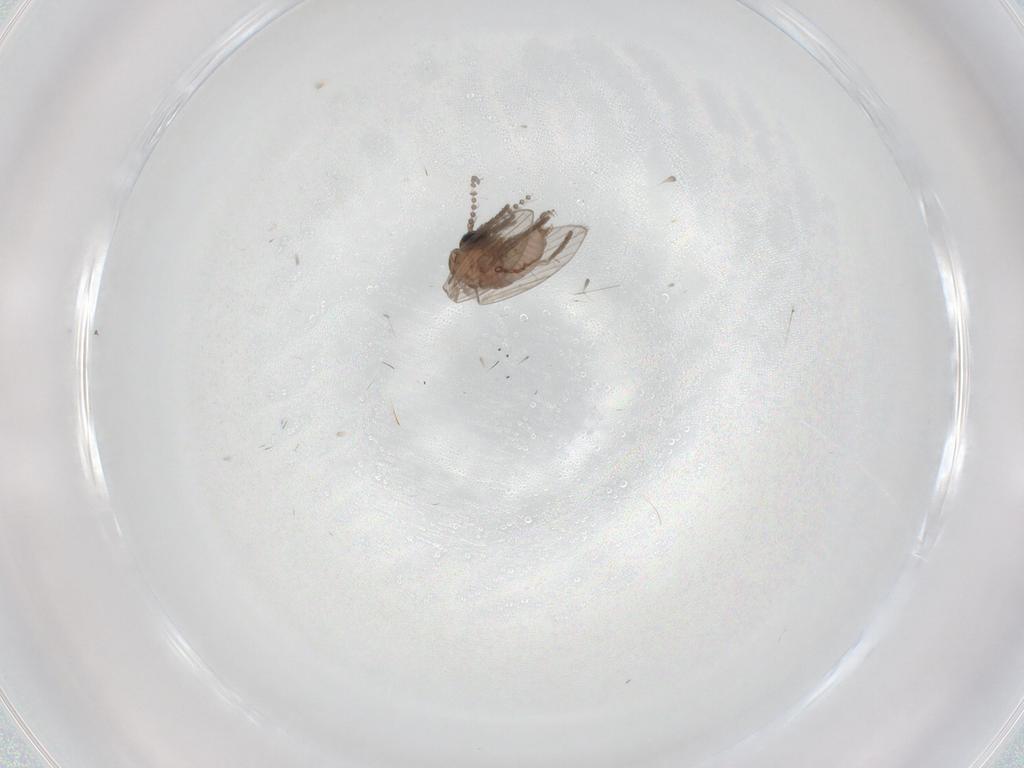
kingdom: Animalia
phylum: Arthropoda
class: Insecta
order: Diptera
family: Psychodidae
